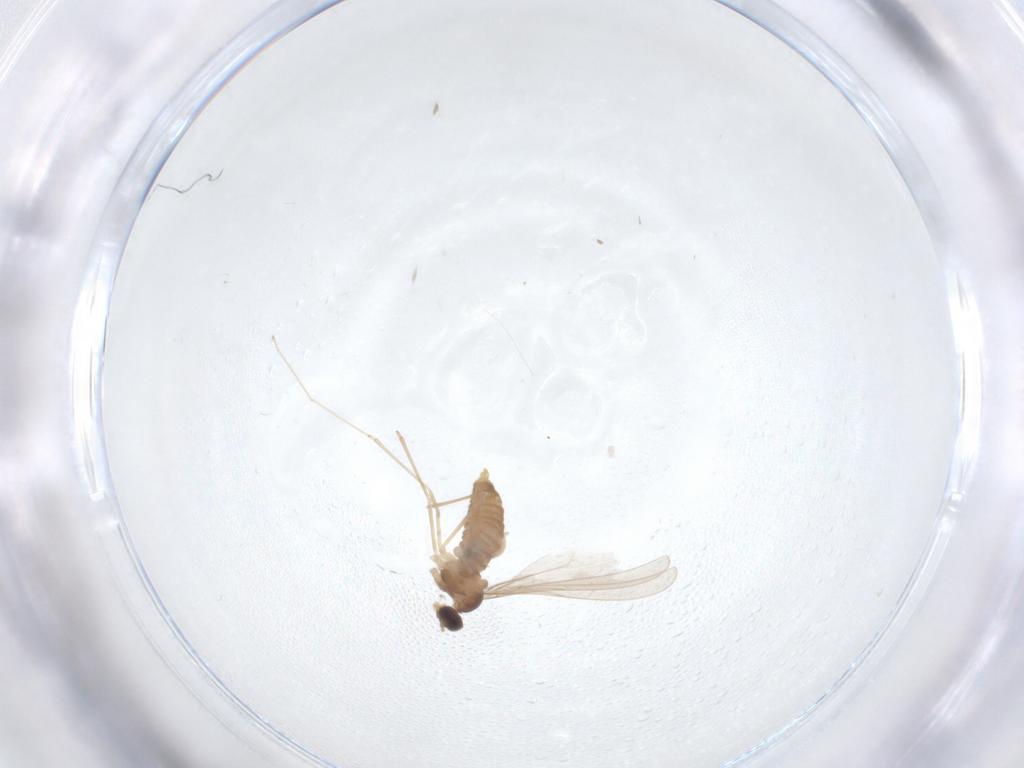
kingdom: Animalia
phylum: Arthropoda
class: Insecta
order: Diptera
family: Cecidomyiidae
